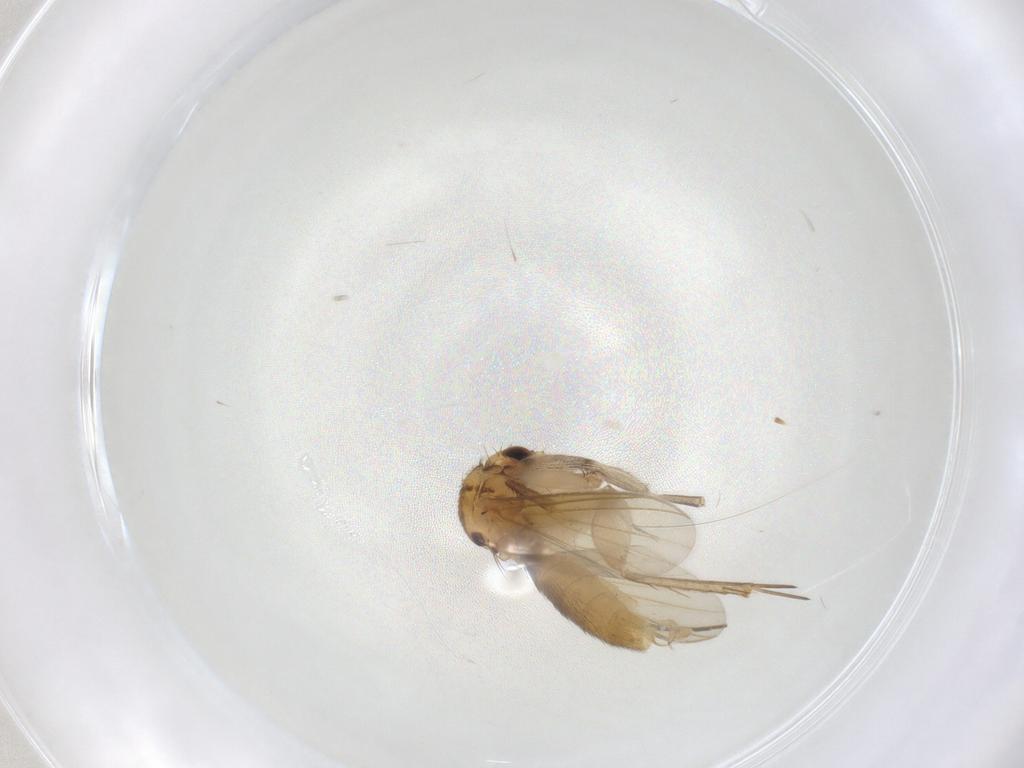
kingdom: Animalia
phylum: Arthropoda
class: Insecta
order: Diptera
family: Mycetophilidae
